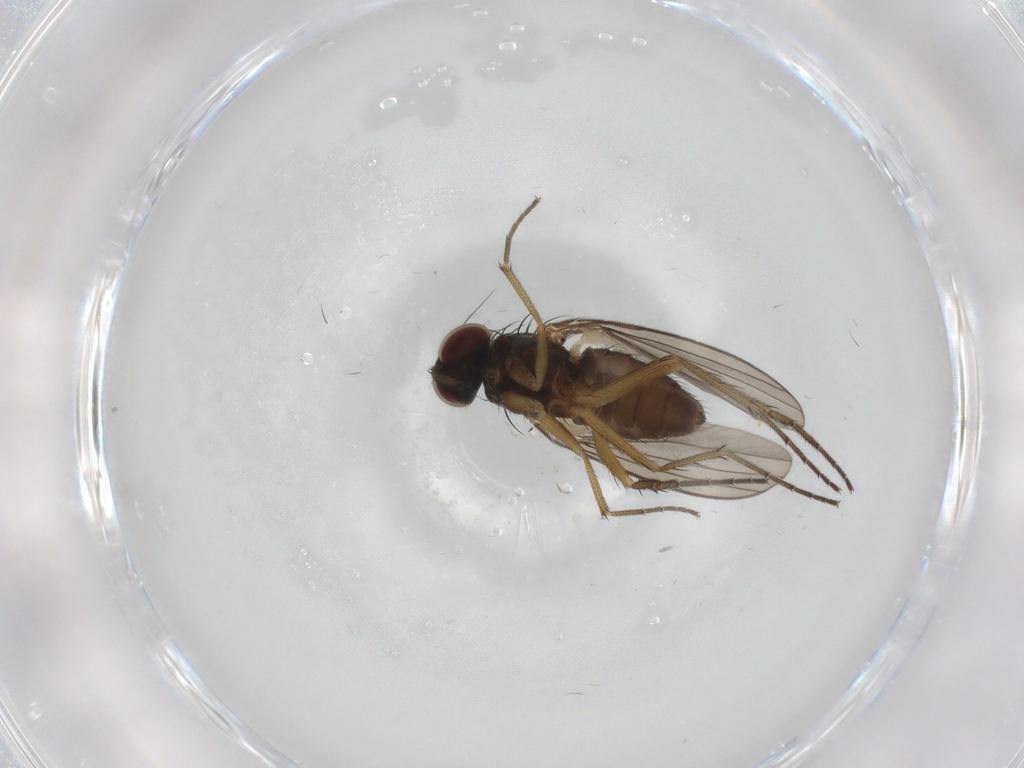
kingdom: Animalia
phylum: Arthropoda
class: Insecta
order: Diptera
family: Dolichopodidae
